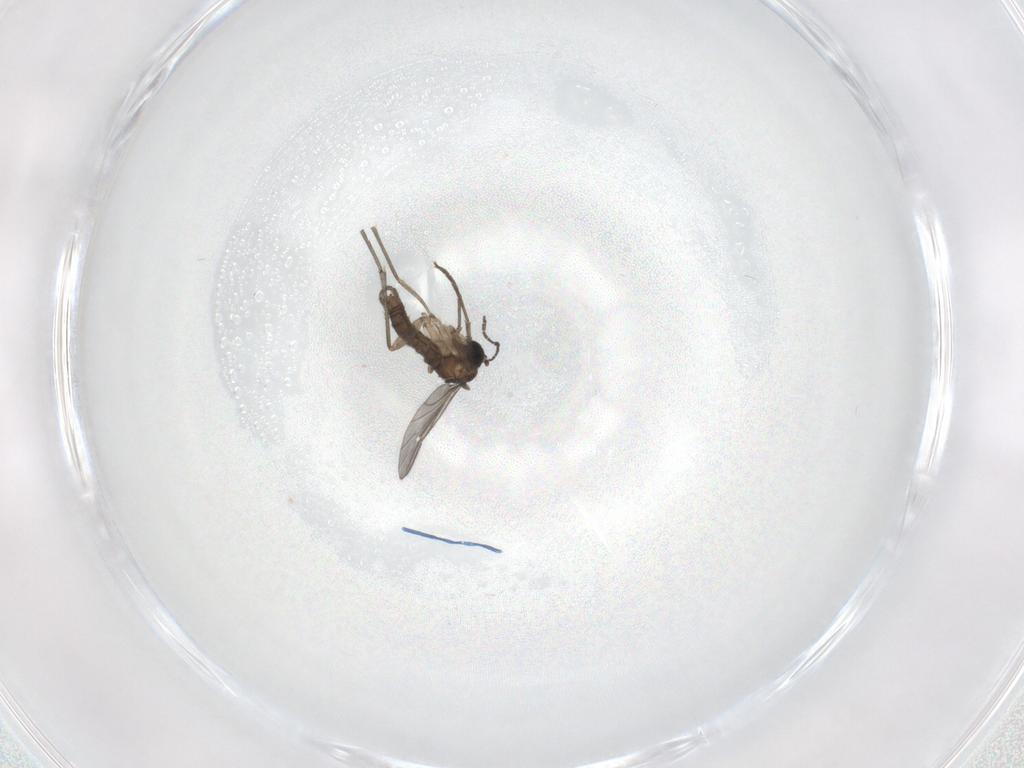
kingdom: Animalia
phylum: Arthropoda
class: Insecta
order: Diptera
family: Sciaridae
